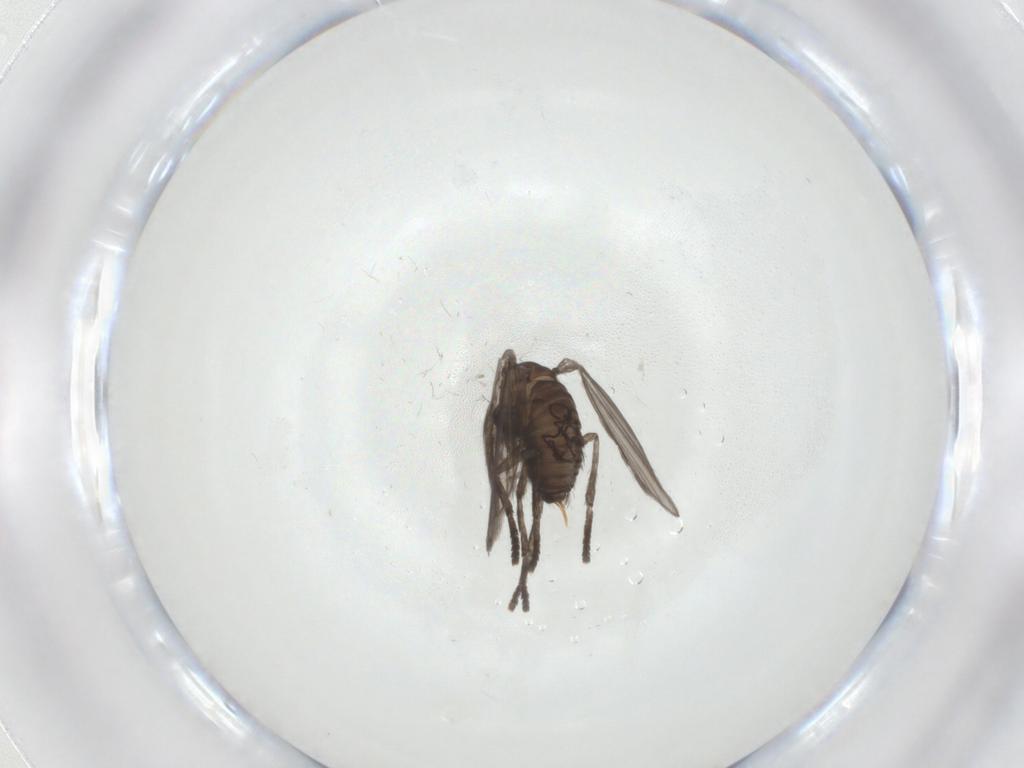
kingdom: Animalia
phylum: Arthropoda
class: Insecta
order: Diptera
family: Psychodidae
